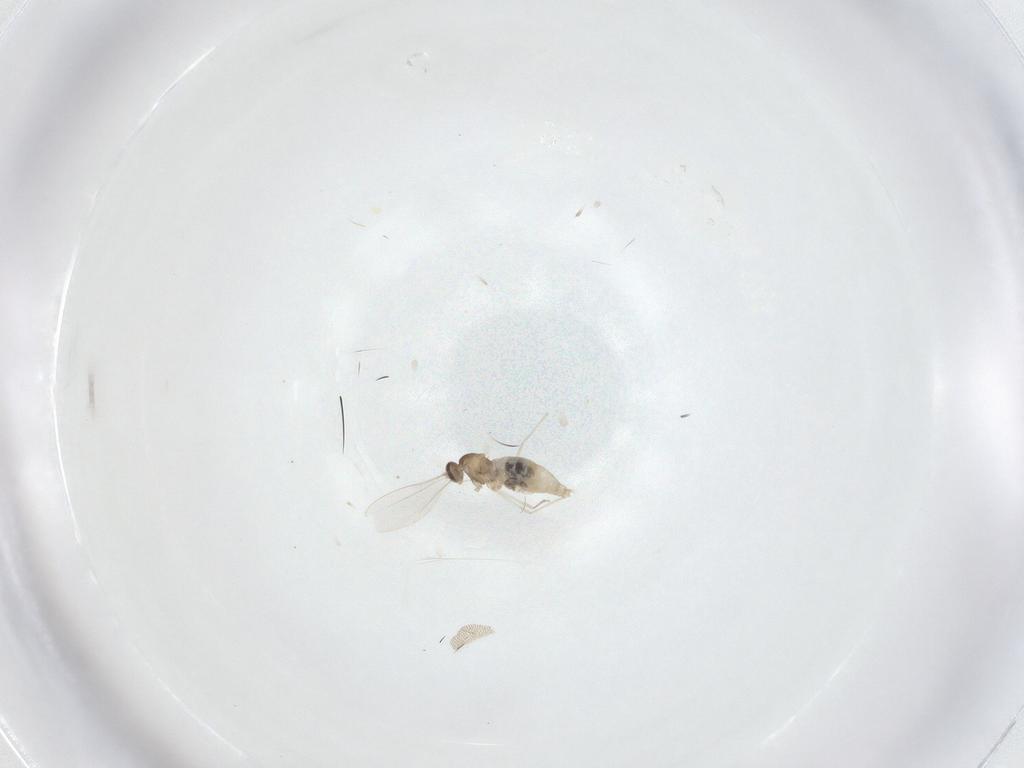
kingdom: Animalia
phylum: Arthropoda
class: Insecta
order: Diptera
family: Cecidomyiidae
